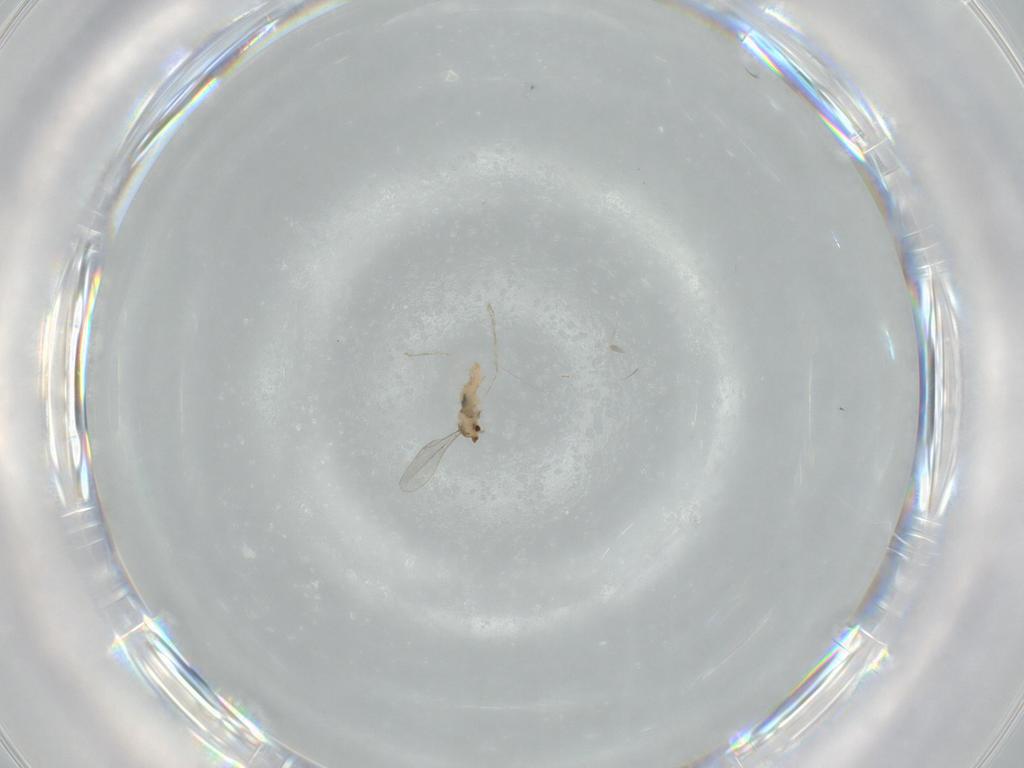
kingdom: Animalia
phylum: Arthropoda
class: Insecta
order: Diptera
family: Cecidomyiidae
